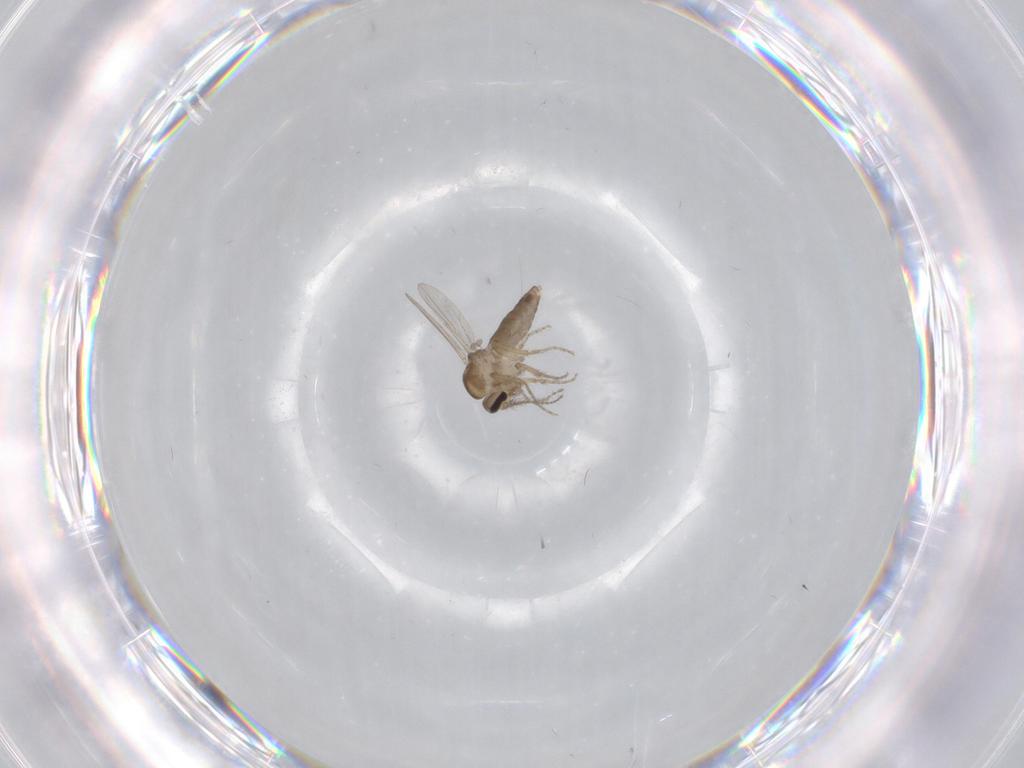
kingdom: Animalia
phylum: Arthropoda
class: Insecta
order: Diptera
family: Ceratopogonidae
